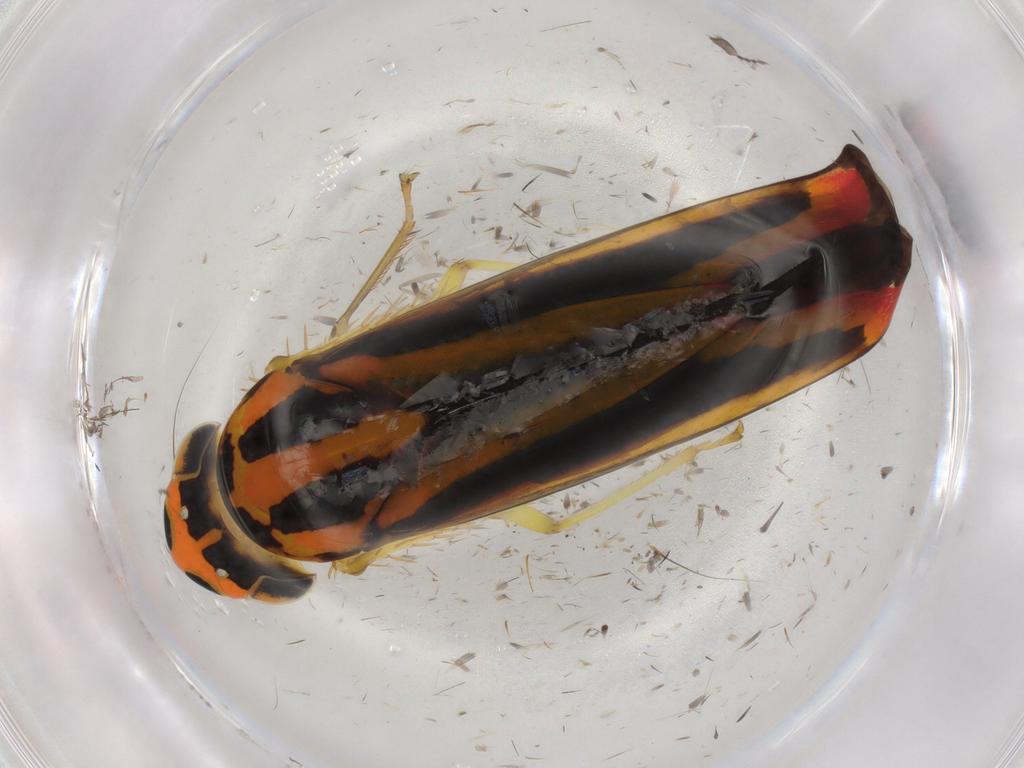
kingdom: Animalia
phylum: Arthropoda
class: Insecta
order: Hemiptera
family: Cicadellidae
